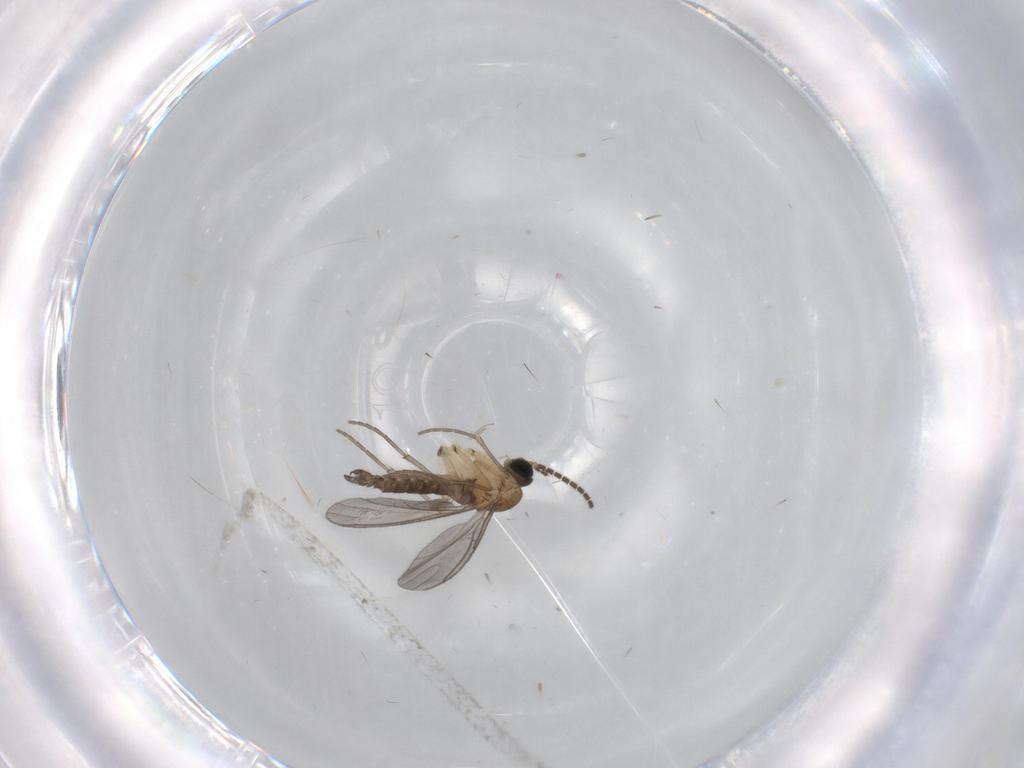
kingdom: Animalia
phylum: Arthropoda
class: Insecta
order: Diptera
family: Sciaridae
